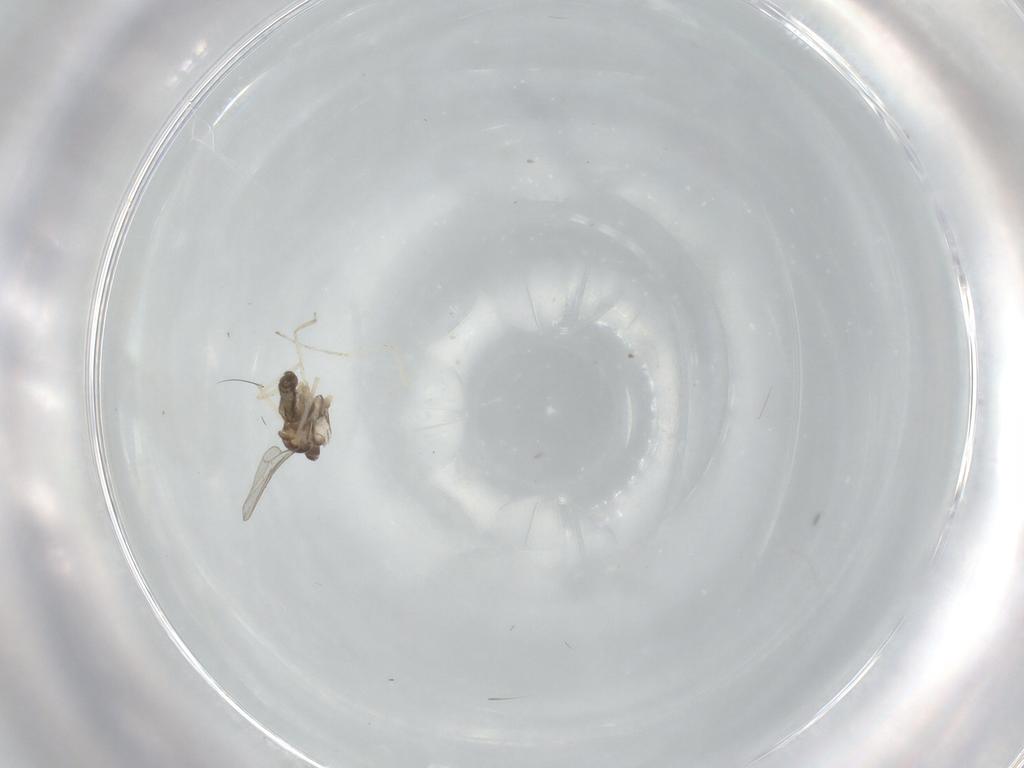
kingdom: Animalia
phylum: Arthropoda
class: Insecta
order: Diptera
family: Cecidomyiidae
